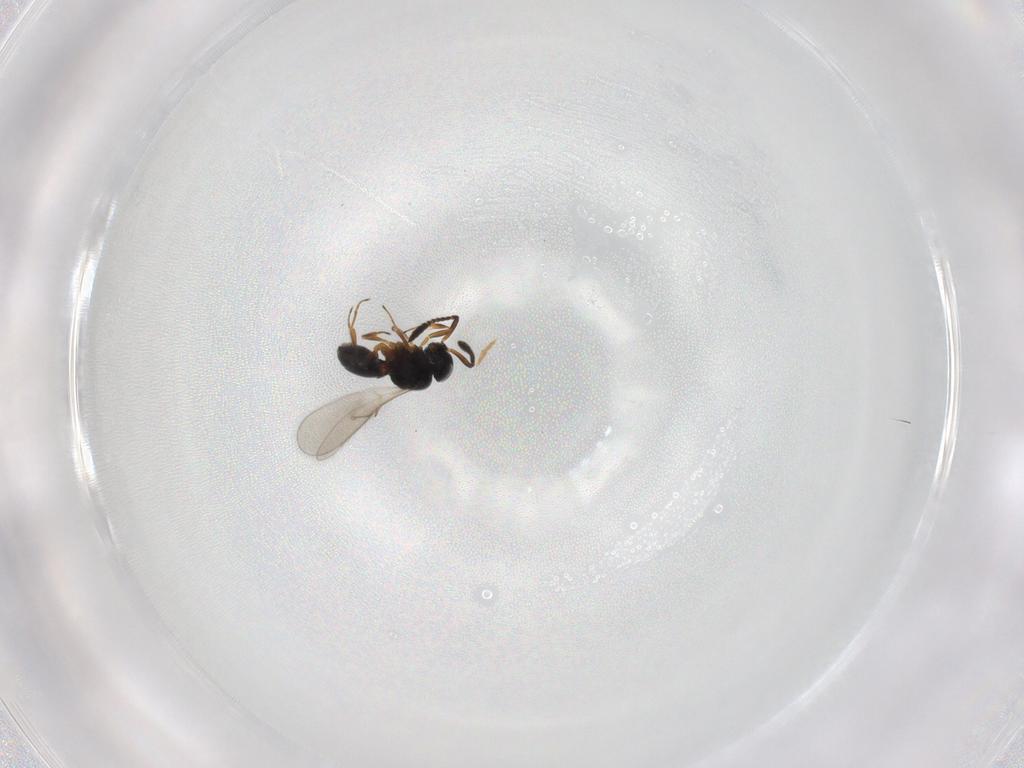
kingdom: Animalia
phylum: Arthropoda
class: Insecta
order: Hymenoptera
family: Scelionidae
